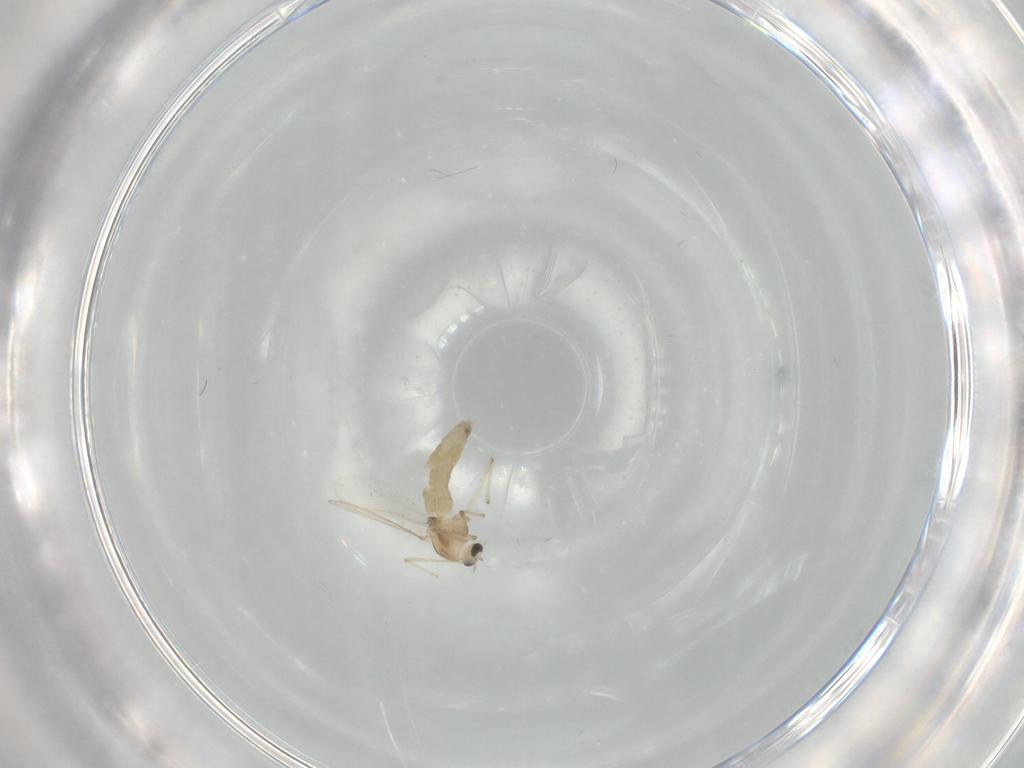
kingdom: Animalia
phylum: Arthropoda
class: Insecta
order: Diptera
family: Chironomidae
